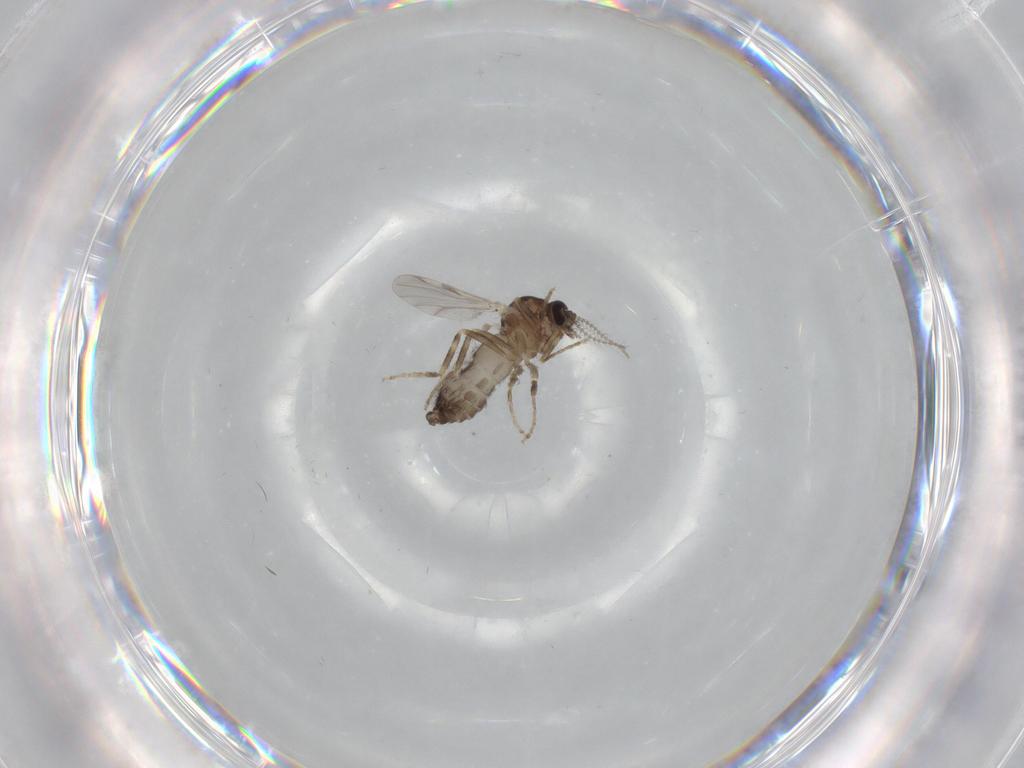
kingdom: Animalia
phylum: Arthropoda
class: Insecta
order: Diptera
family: Ceratopogonidae
